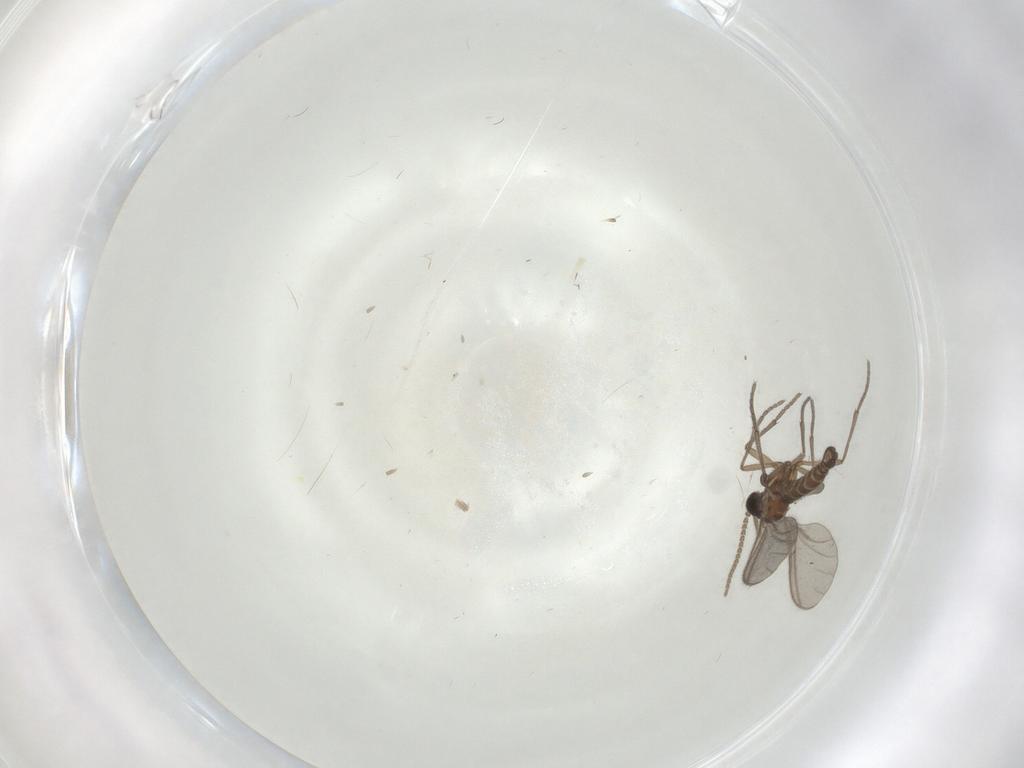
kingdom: Animalia
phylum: Arthropoda
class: Insecta
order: Diptera
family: Sciaridae
